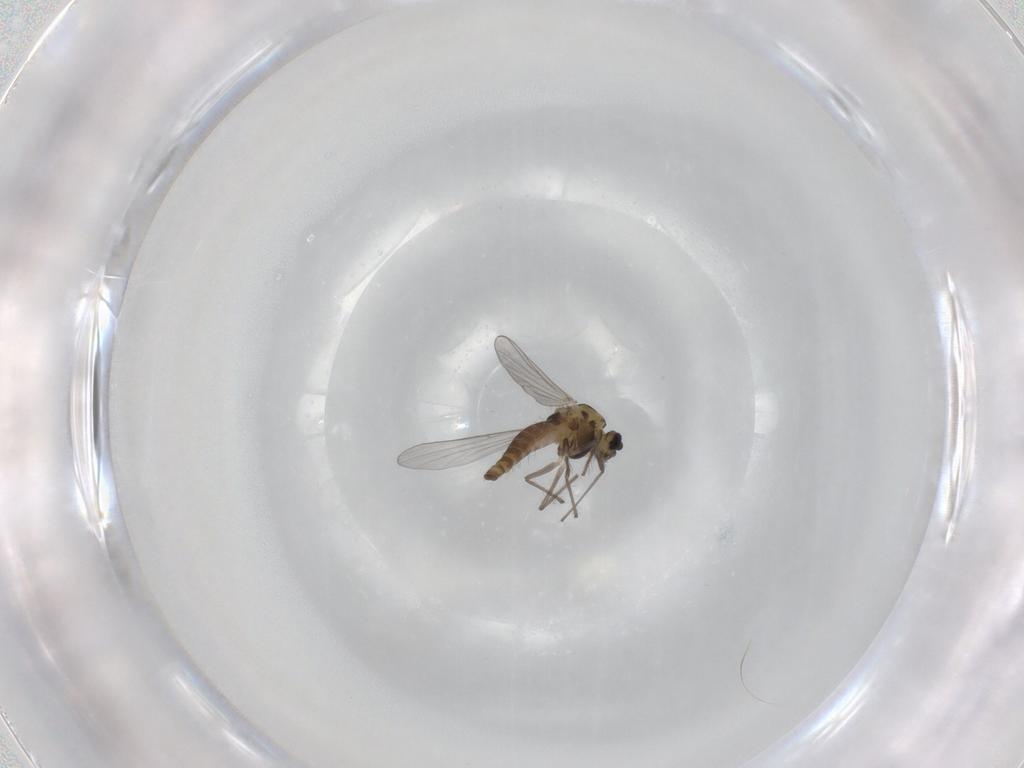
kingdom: Animalia
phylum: Arthropoda
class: Insecta
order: Diptera
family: Chironomidae
